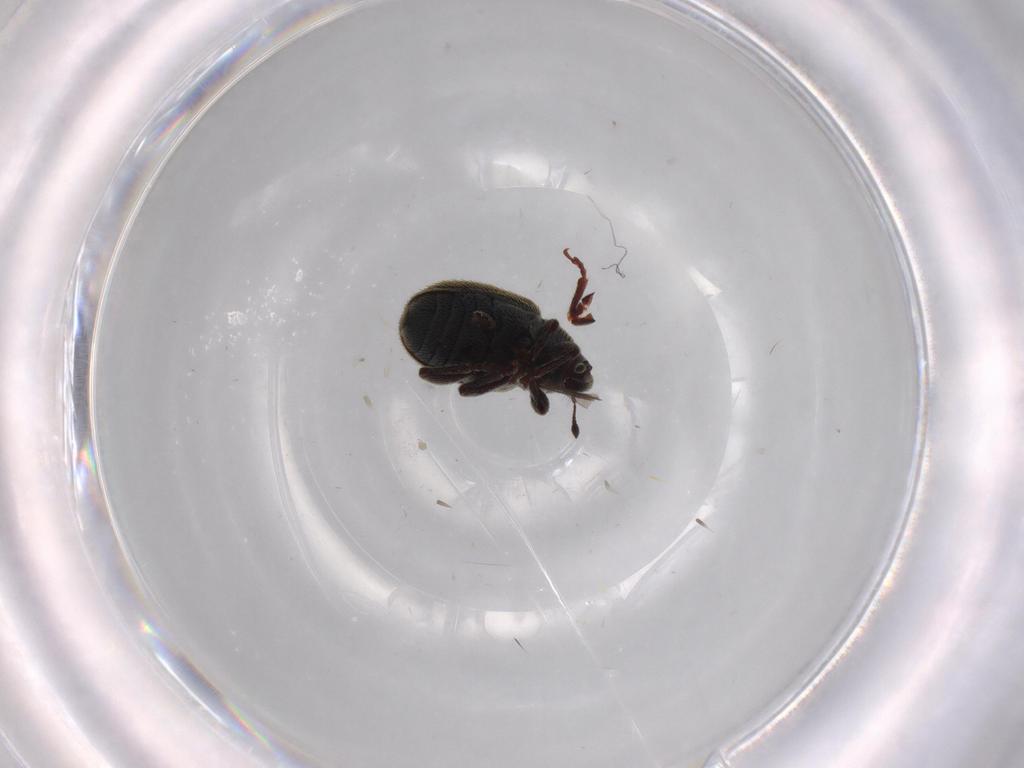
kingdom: Animalia
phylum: Arthropoda
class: Insecta
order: Coleoptera
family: Curculionidae
